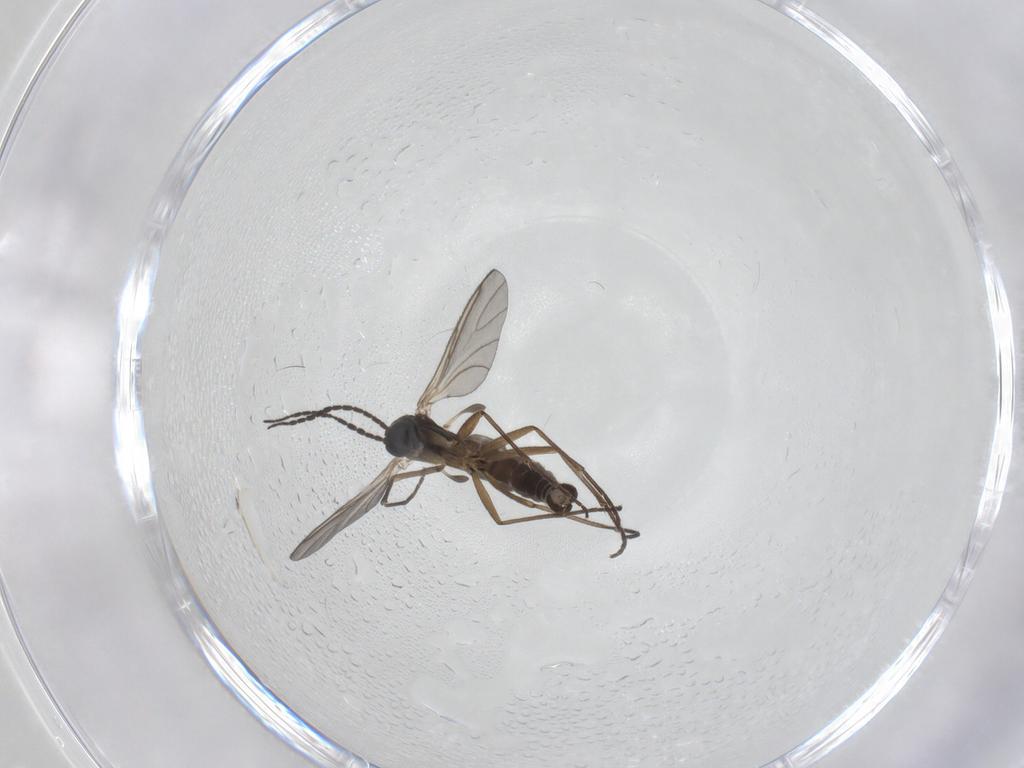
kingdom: Animalia
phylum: Arthropoda
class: Insecta
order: Diptera
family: Chironomidae
